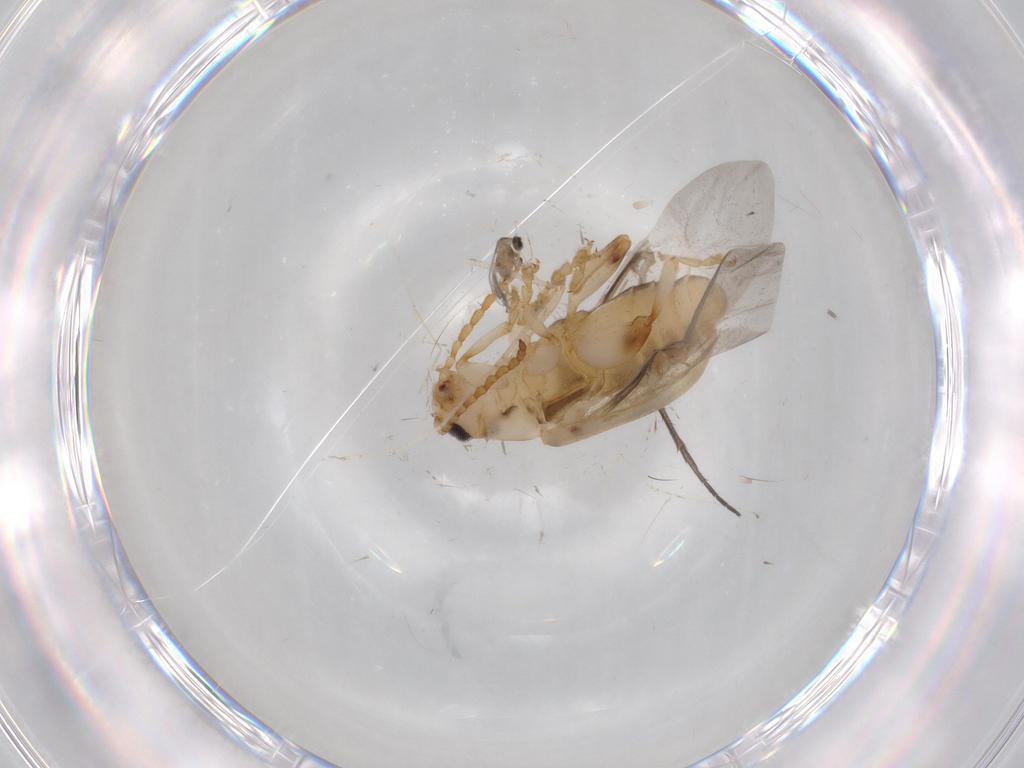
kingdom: Animalia
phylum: Arthropoda
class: Insecta
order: Coleoptera
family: Chrysomelidae
